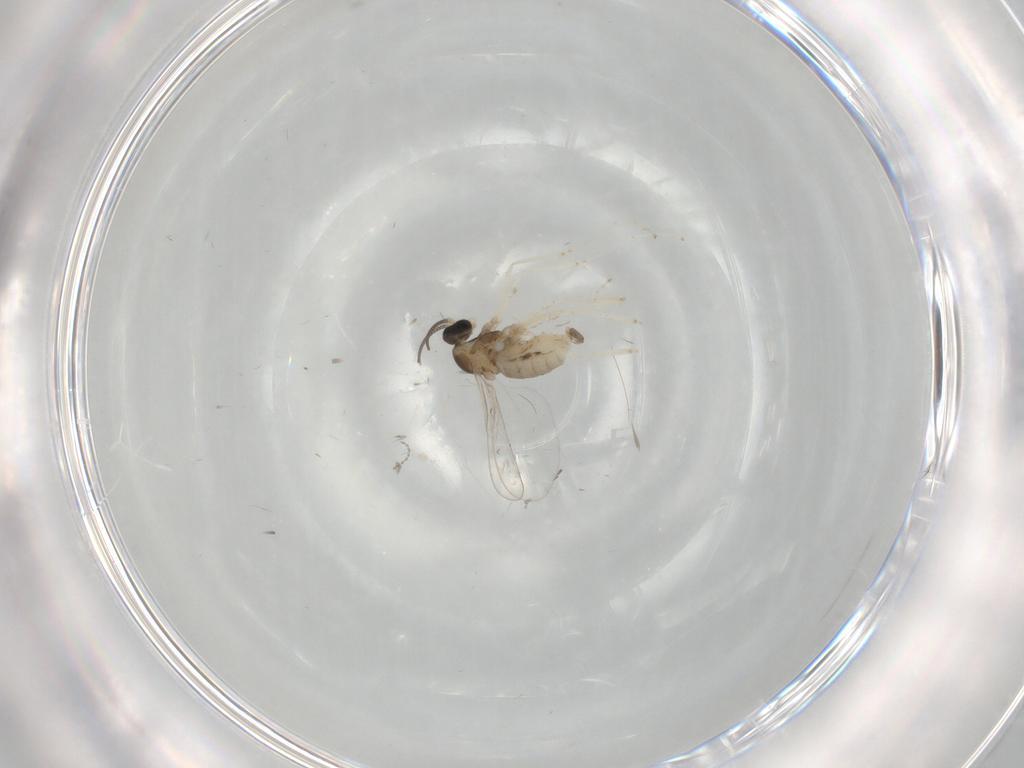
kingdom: Animalia
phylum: Arthropoda
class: Insecta
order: Diptera
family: Cecidomyiidae
